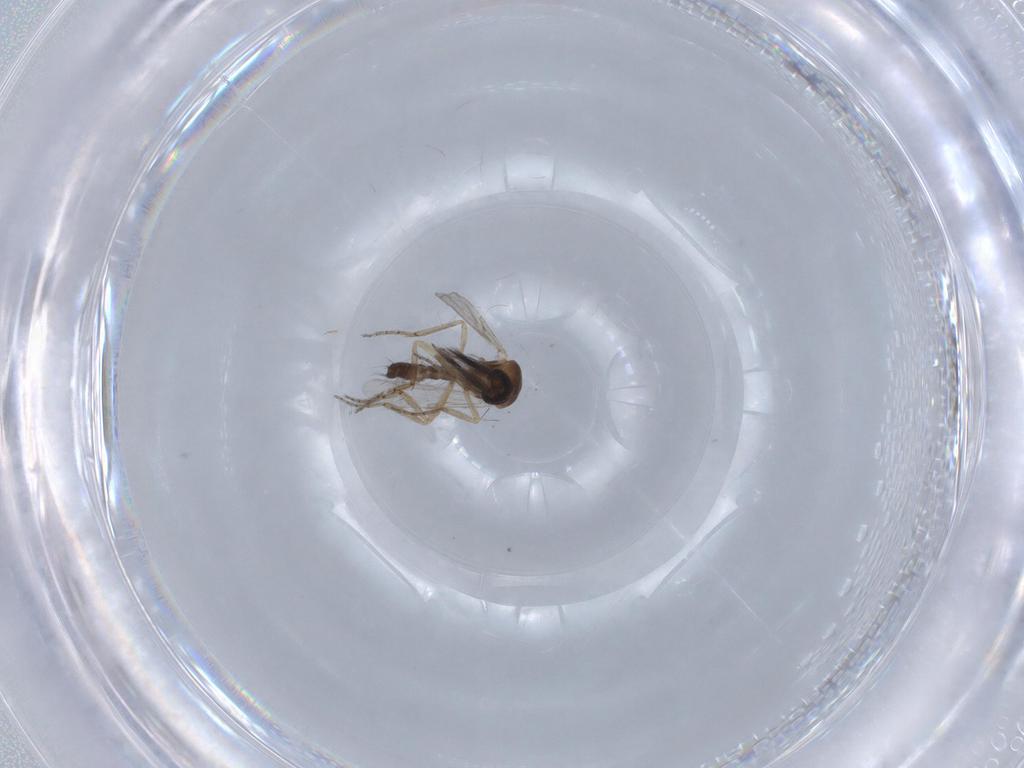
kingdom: Animalia
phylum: Arthropoda
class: Insecta
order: Diptera
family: Ceratopogonidae
